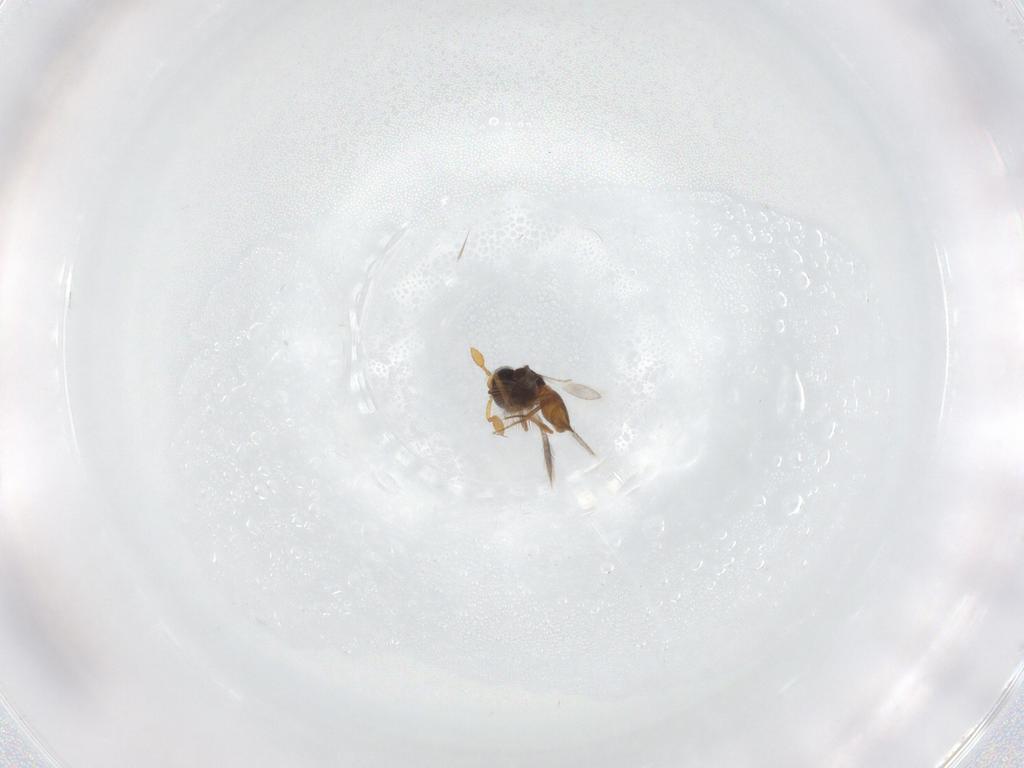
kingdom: Animalia
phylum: Arthropoda
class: Insecta
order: Hymenoptera
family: Scelionidae
